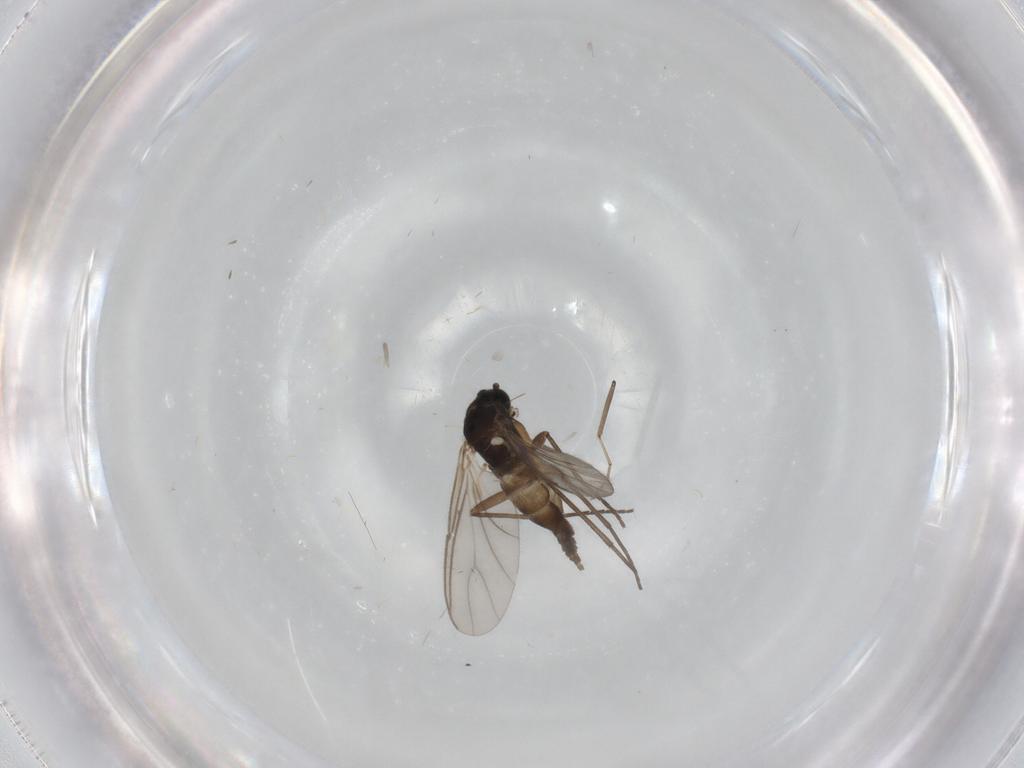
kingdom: Animalia
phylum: Arthropoda
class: Insecta
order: Diptera
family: Sciaridae
